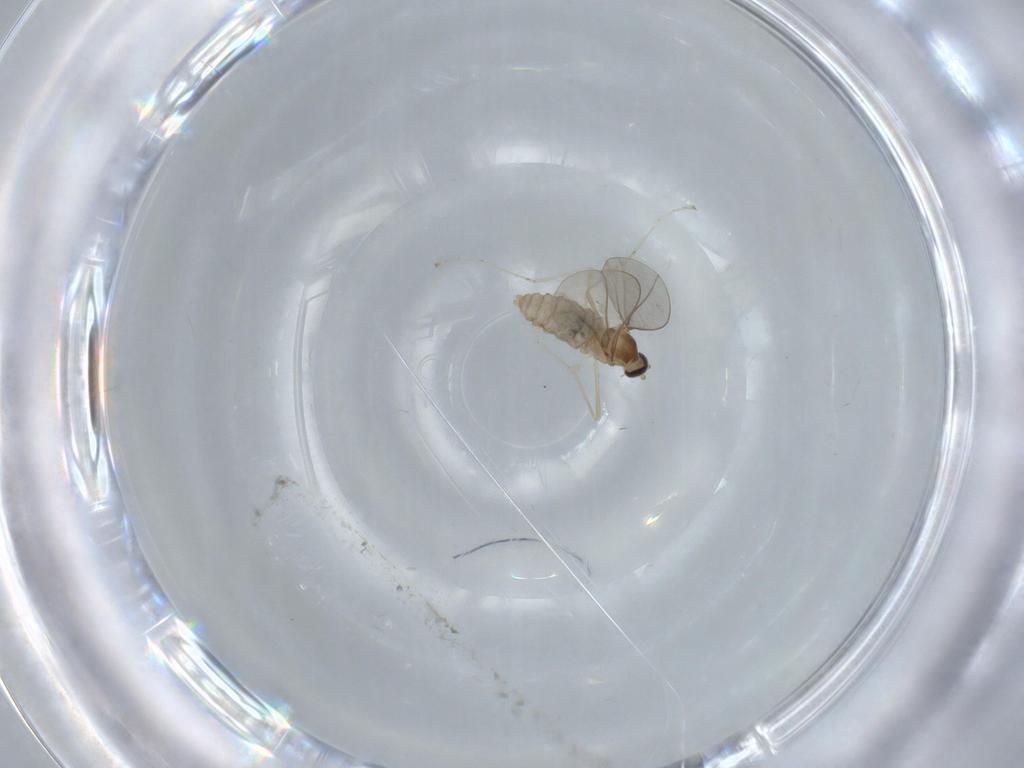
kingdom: Animalia
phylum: Arthropoda
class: Insecta
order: Diptera
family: Cecidomyiidae
